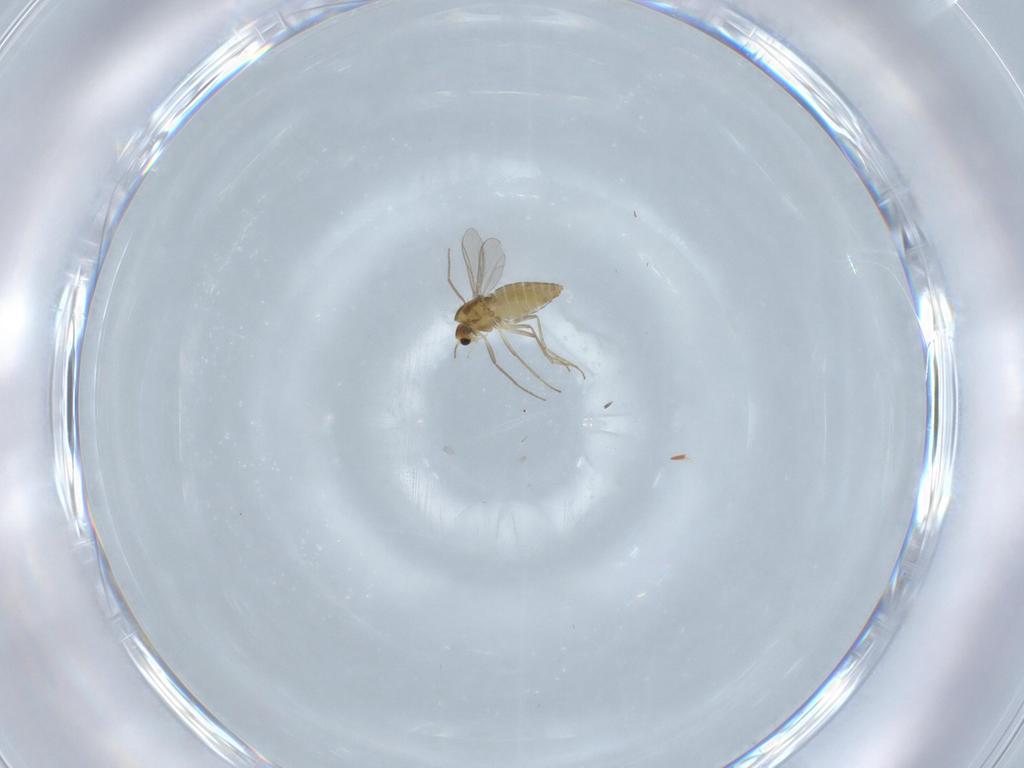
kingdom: Animalia
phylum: Arthropoda
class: Insecta
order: Diptera
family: Chironomidae
